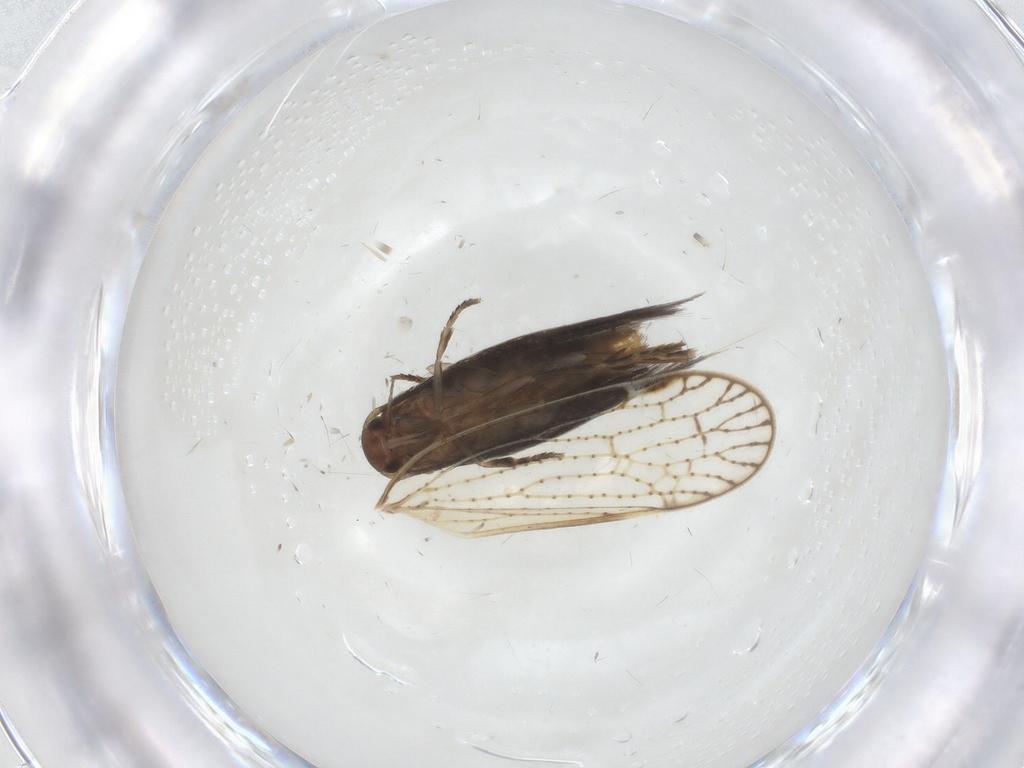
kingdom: Animalia
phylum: Arthropoda
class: Insecta
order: Lepidoptera
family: Elachistidae
